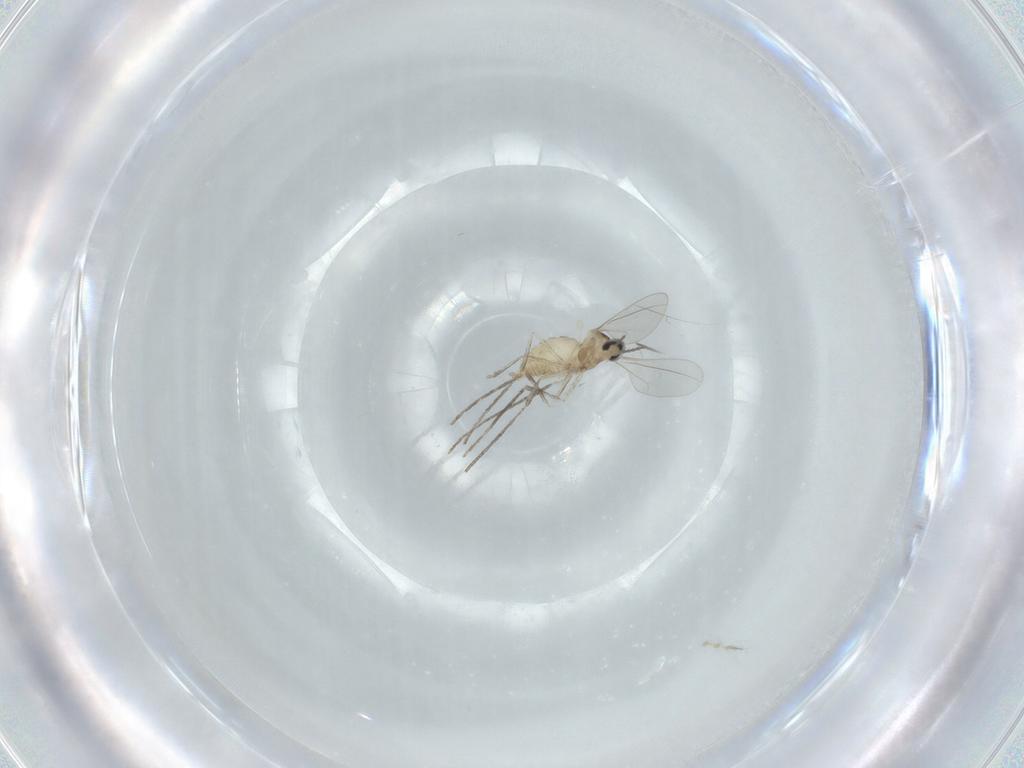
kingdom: Animalia
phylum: Arthropoda
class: Insecta
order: Diptera
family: Cecidomyiidae
